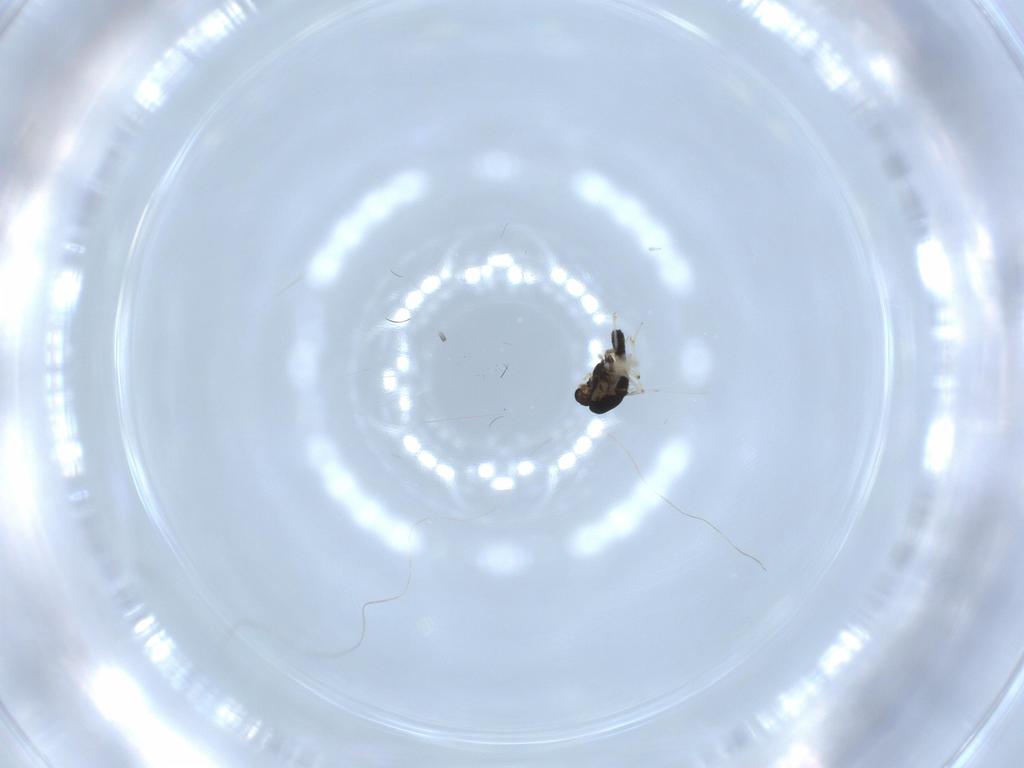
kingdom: Animalia
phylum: Arthropoda
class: Insecta
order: Diptera
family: Chironomidae
